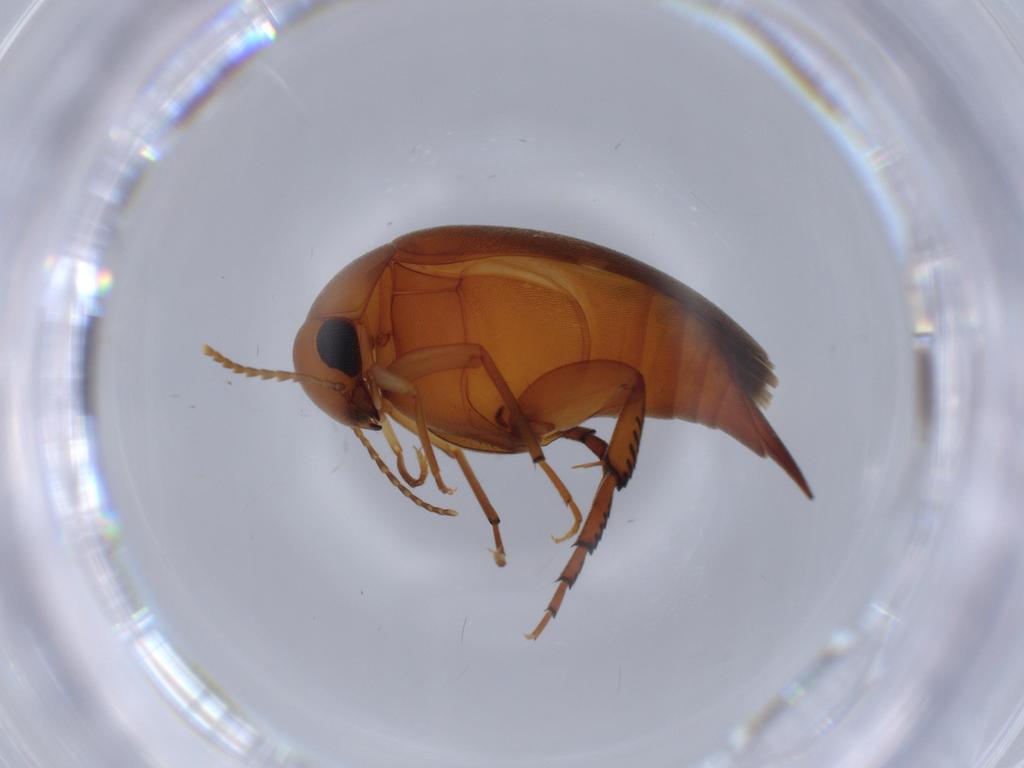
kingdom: Animalia
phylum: Arthropoda
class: Insecta
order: Coleoptera
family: Mordellidae
